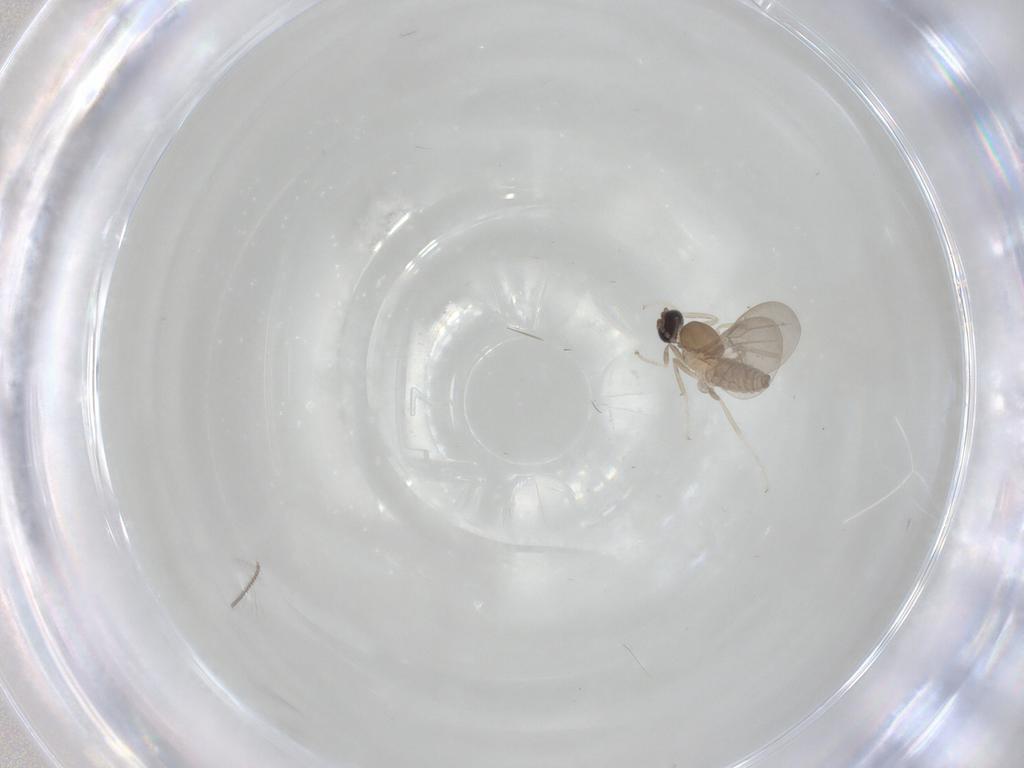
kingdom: Animalia
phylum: Arthropoda
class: Insecta
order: Diptera
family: Cecidomyiidae
